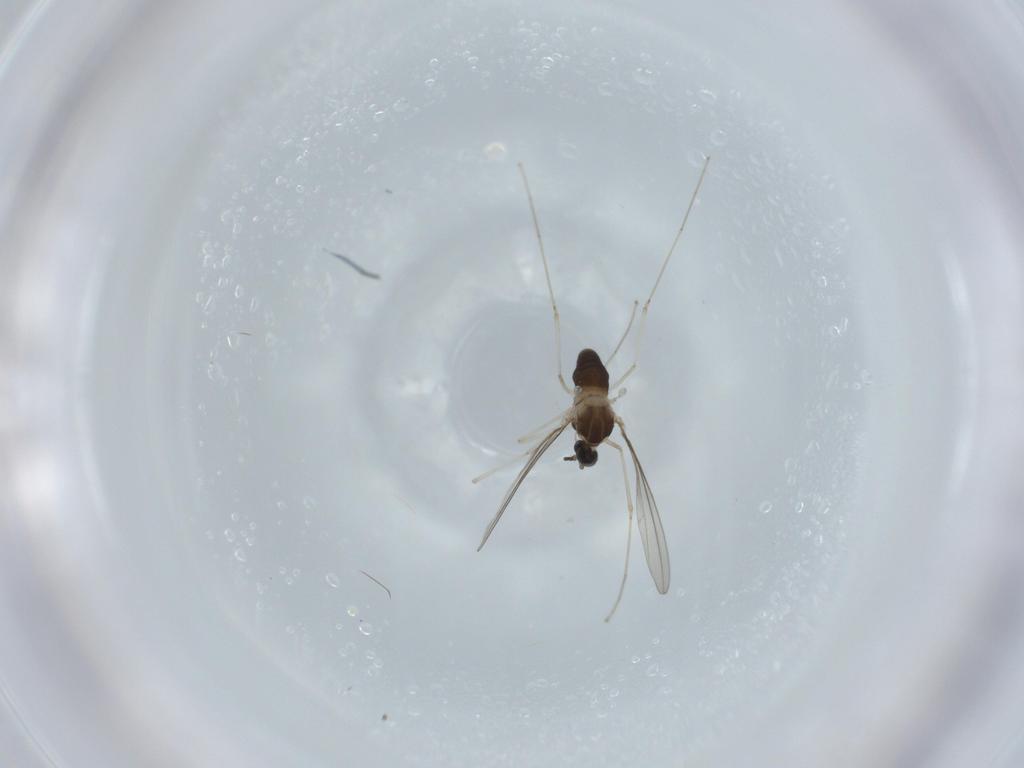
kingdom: Animalia
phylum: Arthropoda
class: Insecta
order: Diptera
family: Cecidomyiidae
